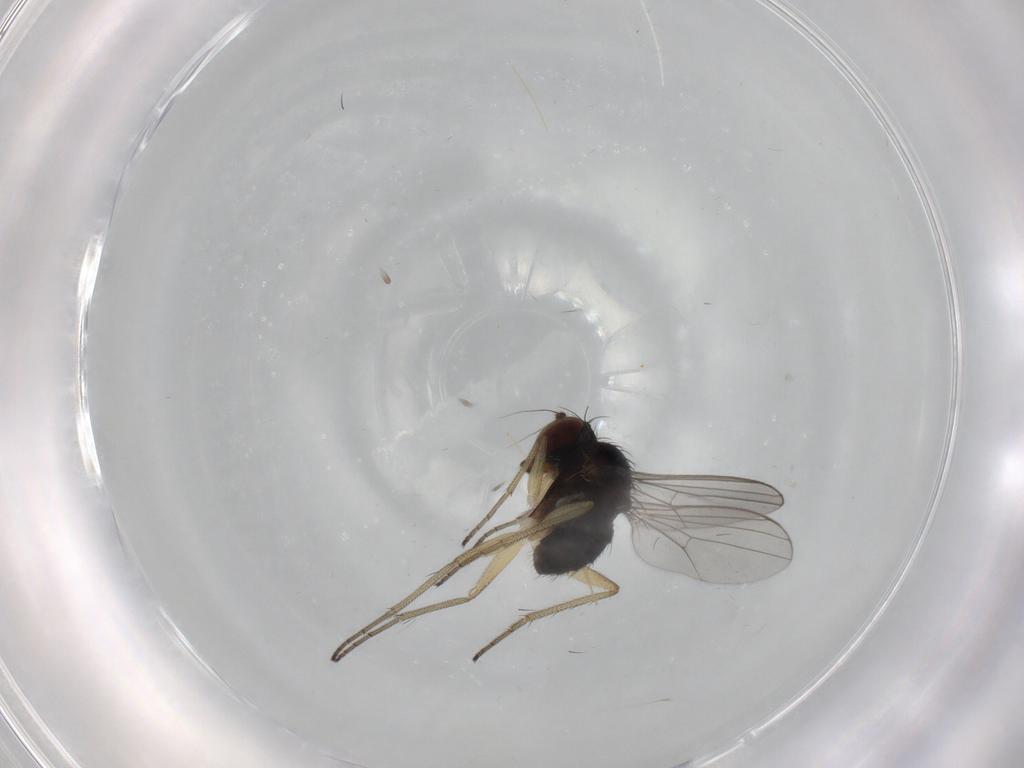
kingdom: Animalia
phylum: Arthropoda
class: Insecta
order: Diptera
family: Dolichopodidae
